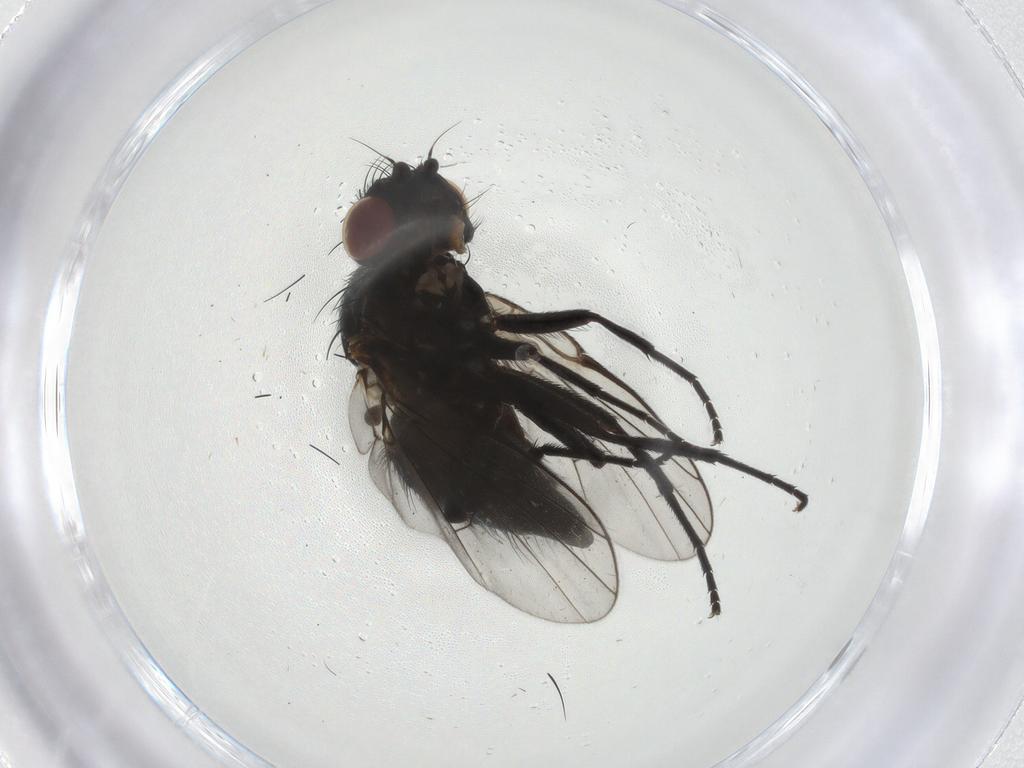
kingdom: Animalia
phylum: Arthropoda
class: Insecta
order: Diptera
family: Agromyzidae
